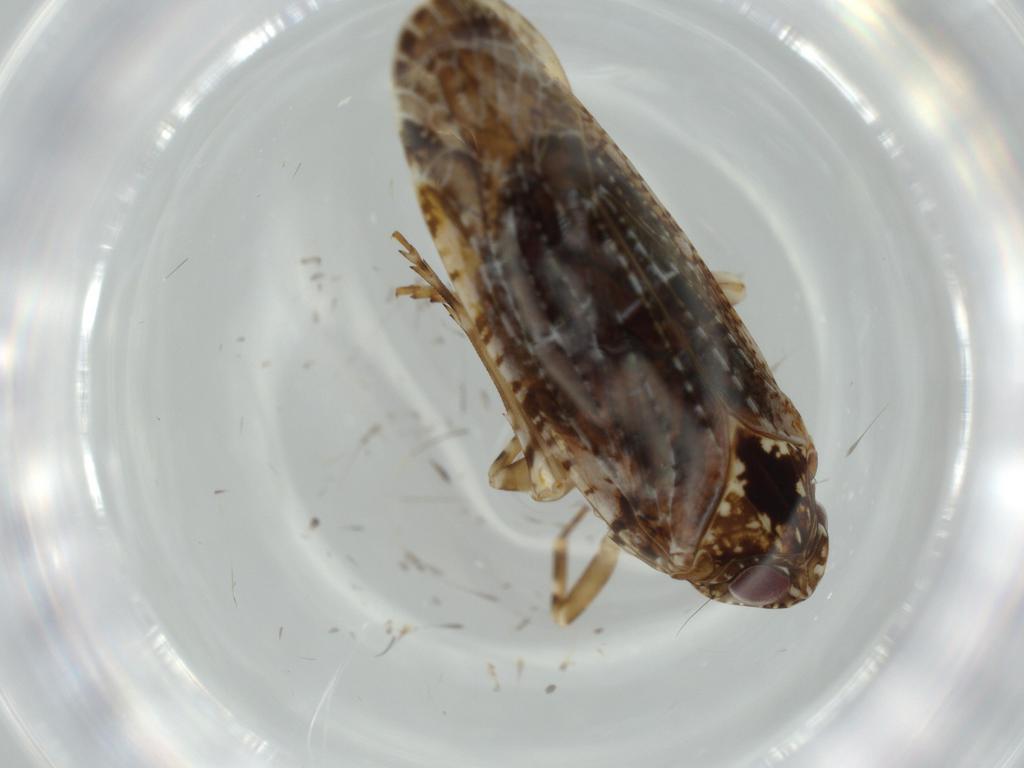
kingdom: Animalia
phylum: Arthropoda
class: Insecta
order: Hemiptera
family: Achilidae
